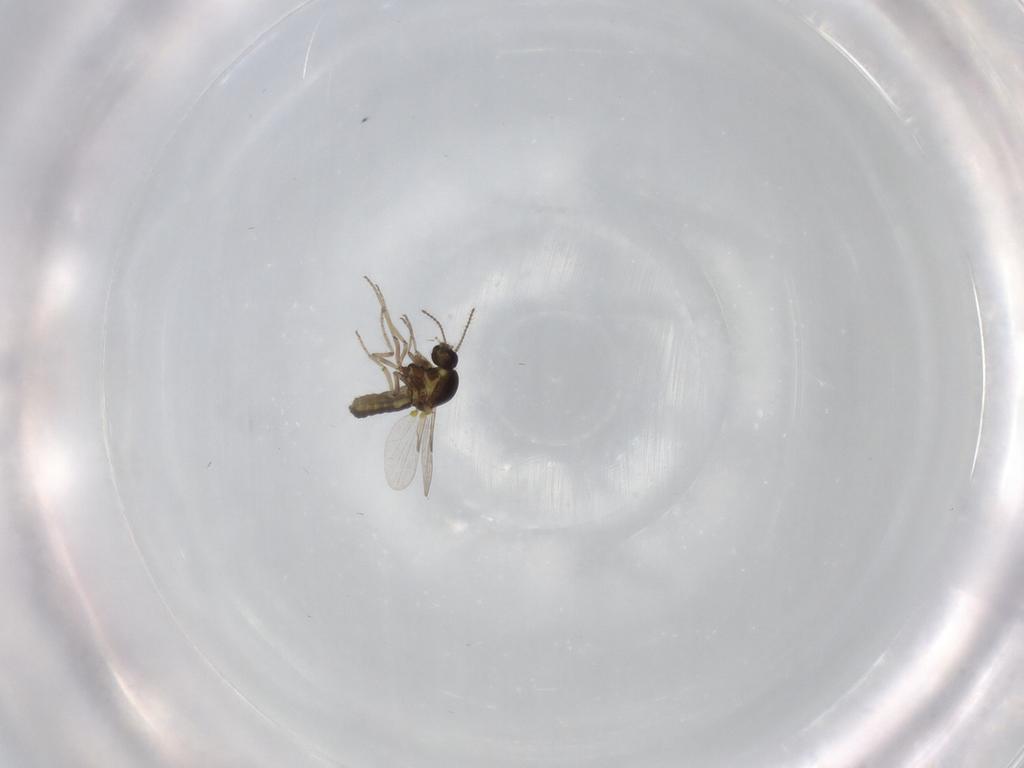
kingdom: Animalia
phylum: Arthropoda
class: Insecta
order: Diptera
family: Ceratopogonidae
